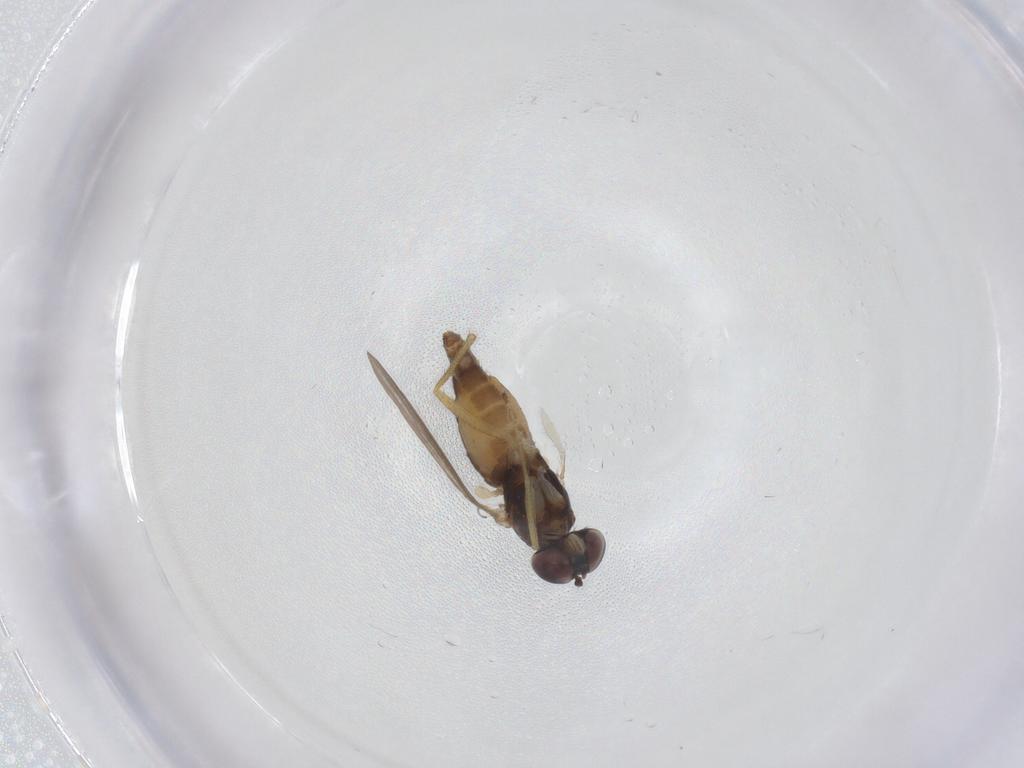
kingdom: Animalia
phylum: Arthropoda
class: Insecta
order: Diptera
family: Dolichopodidae
